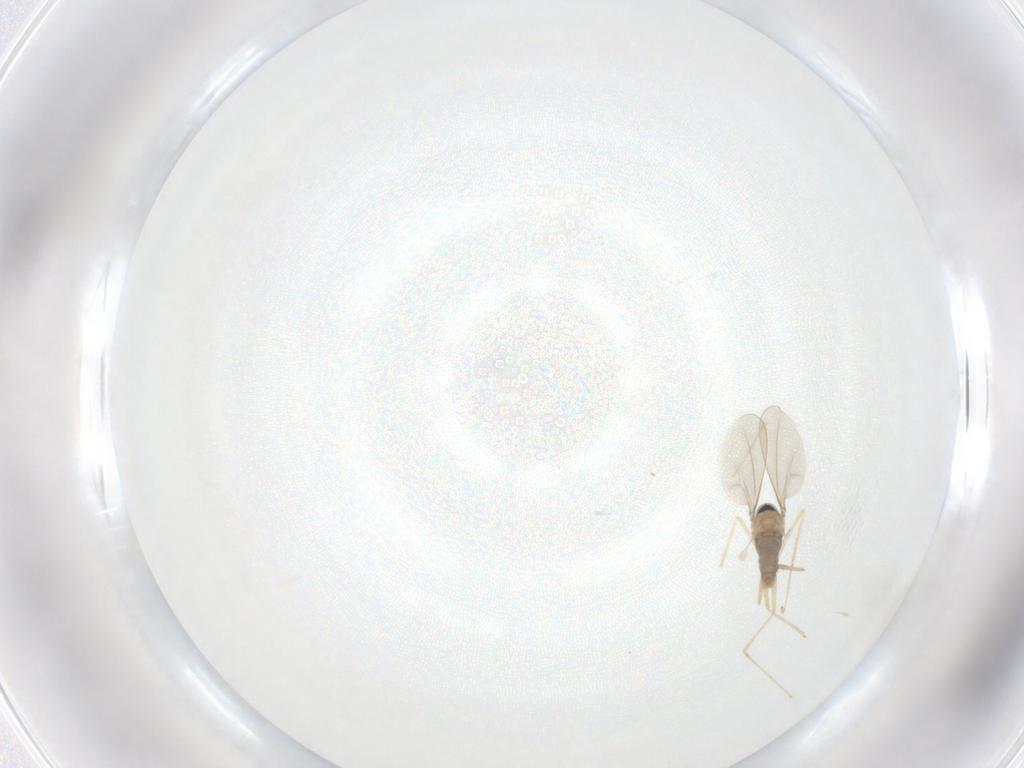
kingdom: Animalia
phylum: Arthropoda
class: Insecta
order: Diptera
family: Cecidomyiidae
